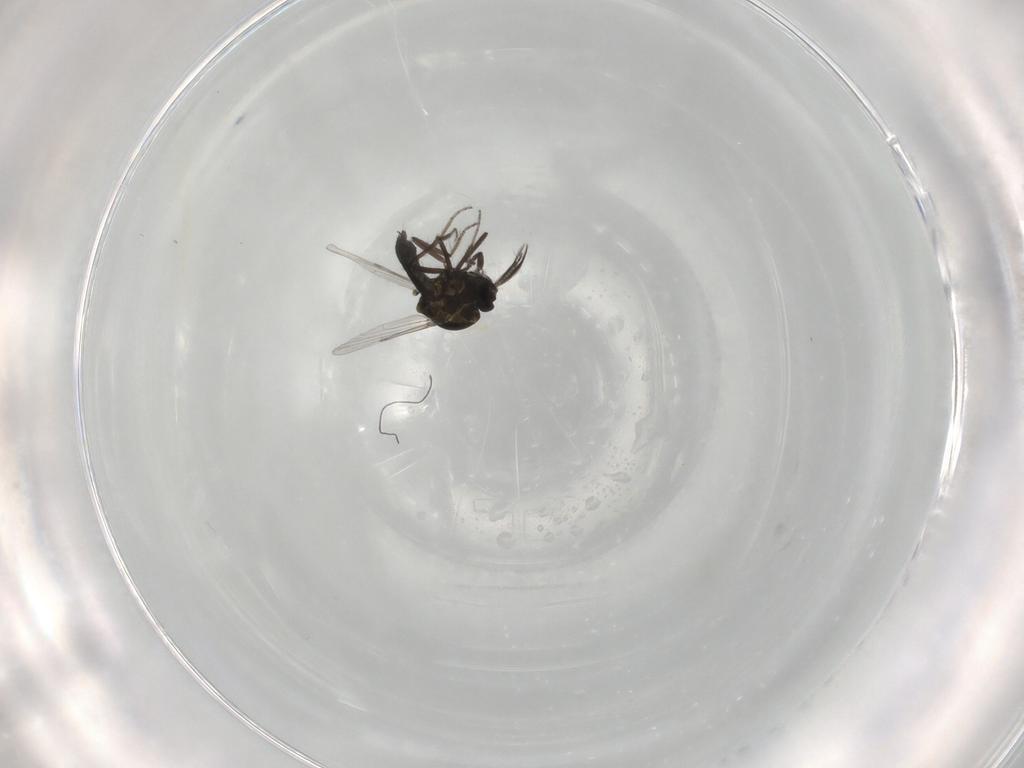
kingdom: Animalia
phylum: Arthropoda
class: Insecta
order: Diptera
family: Ceratopogonidae
